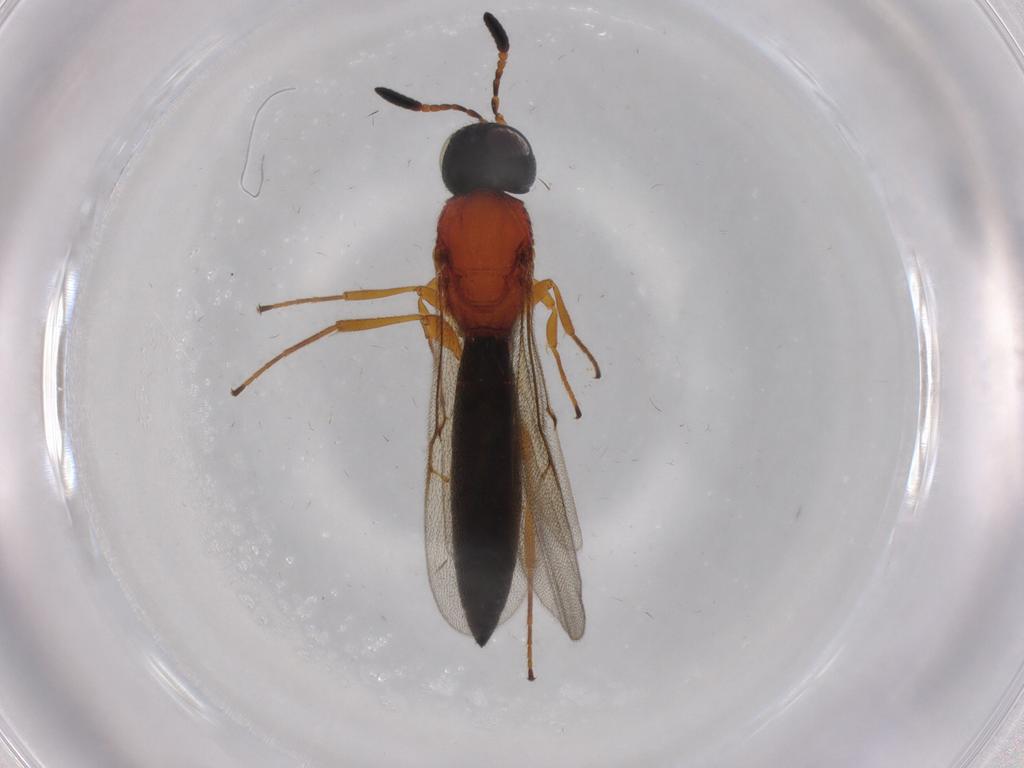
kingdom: Animalia
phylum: Arthropoda
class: Insecta
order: Hymenoptera
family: Scelionidae
